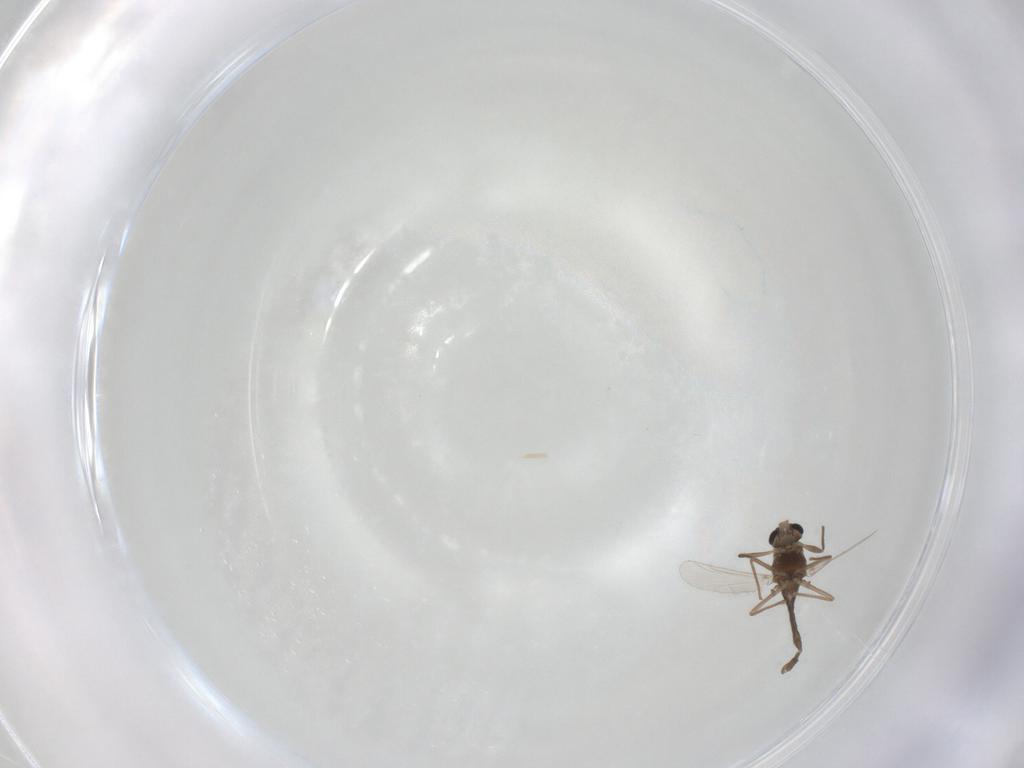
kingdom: Animalia
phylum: Arthropoda
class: Insecta
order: Diptera
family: Chironomidae
